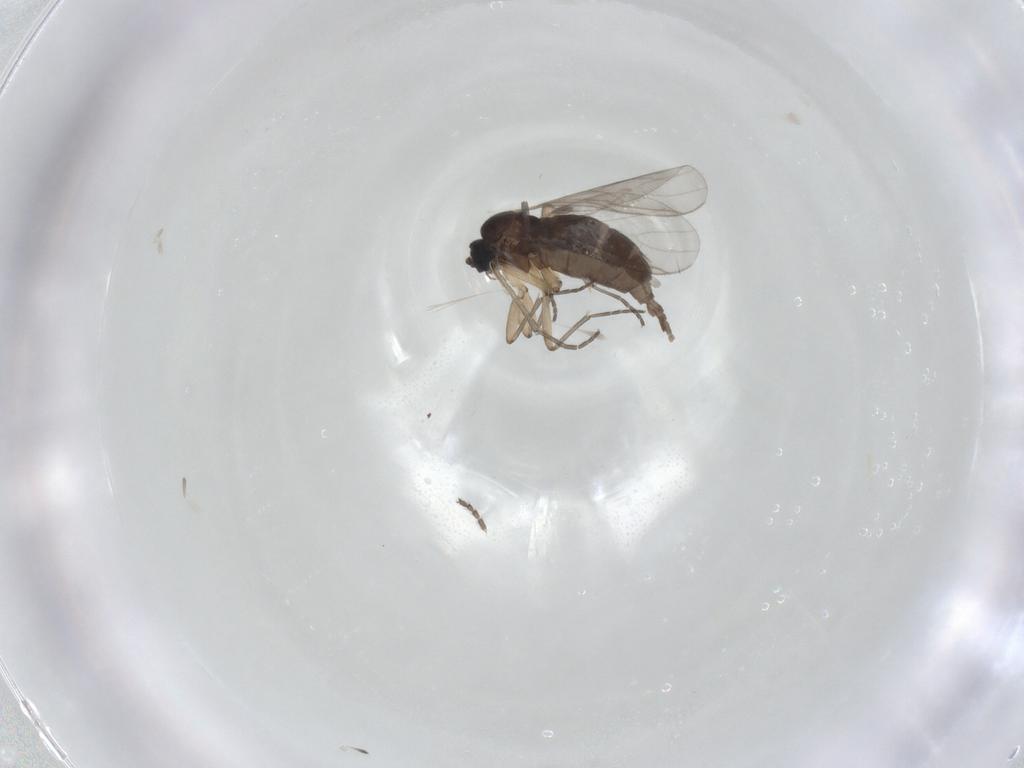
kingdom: Animalia
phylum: Arthropoda
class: Insecta
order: Diptera
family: Sciaridae
